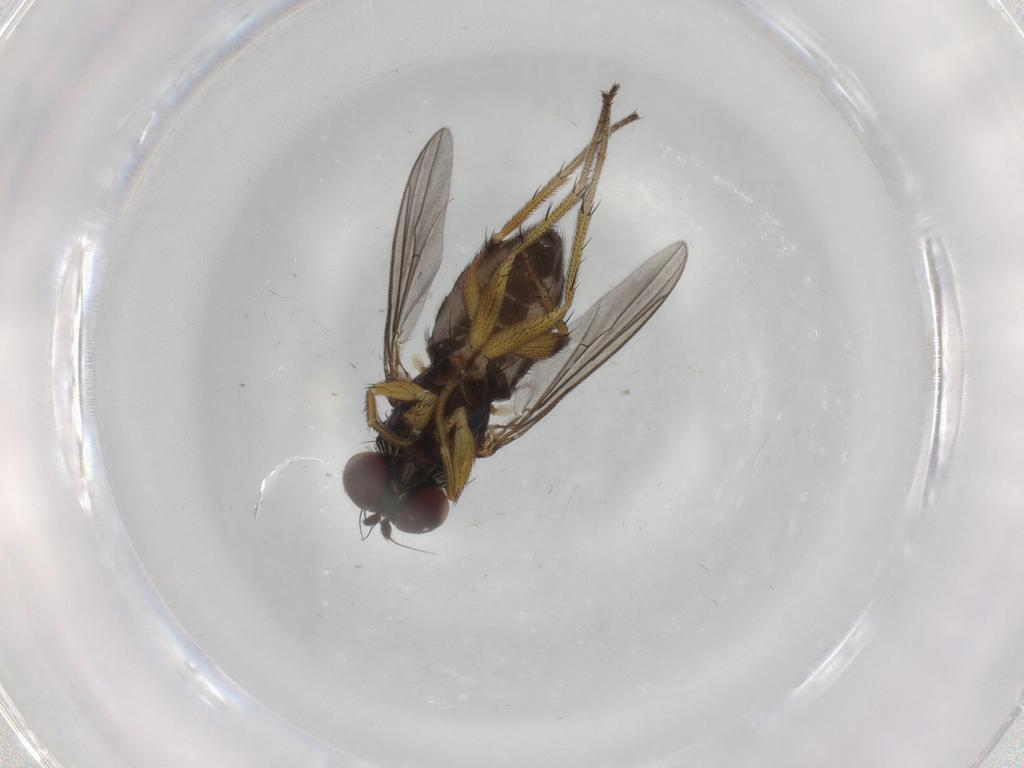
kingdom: Animalia
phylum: Arthropoda
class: Insecta
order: Diptera
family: Dolichopodidae
